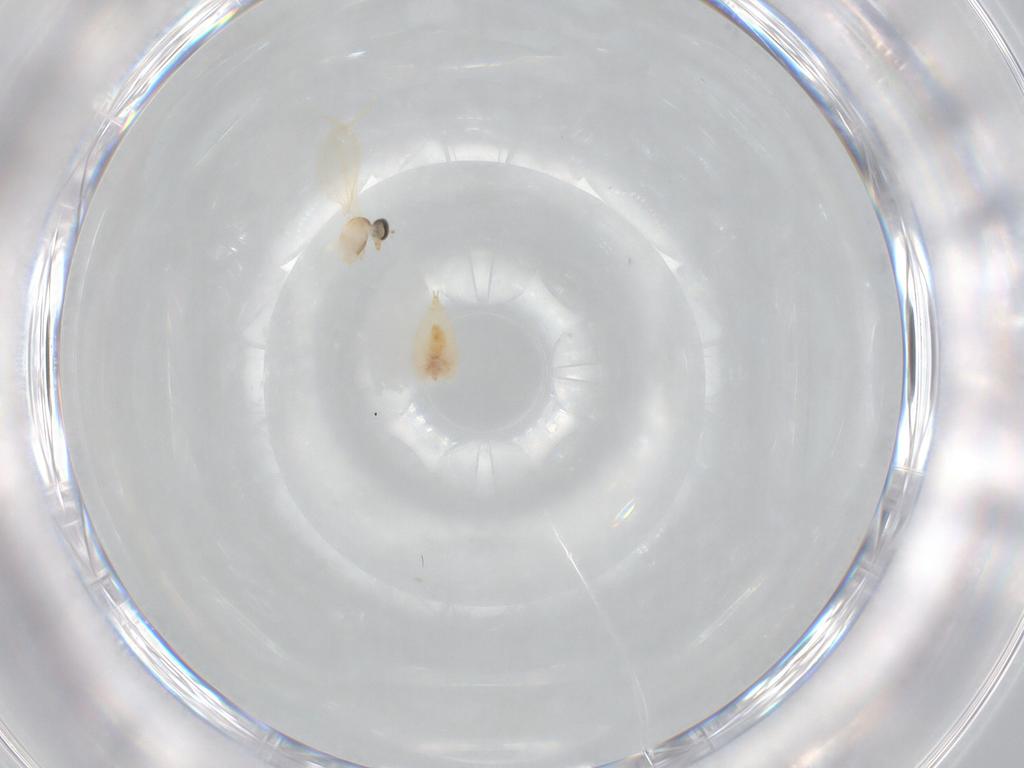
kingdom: Animalia
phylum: Arthropoda
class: Insecta
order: Diptera
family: Cecidomyiidae
